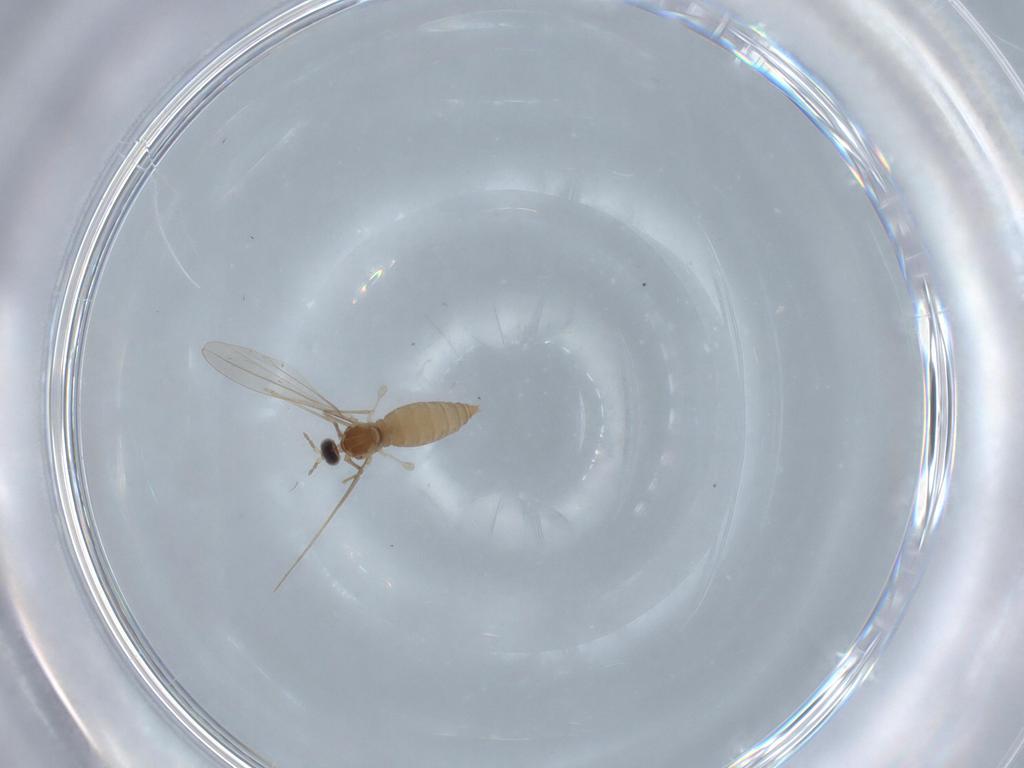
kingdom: Animalia
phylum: Arthropoda
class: Insecta
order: Diptera
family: Cecidomyiidae
